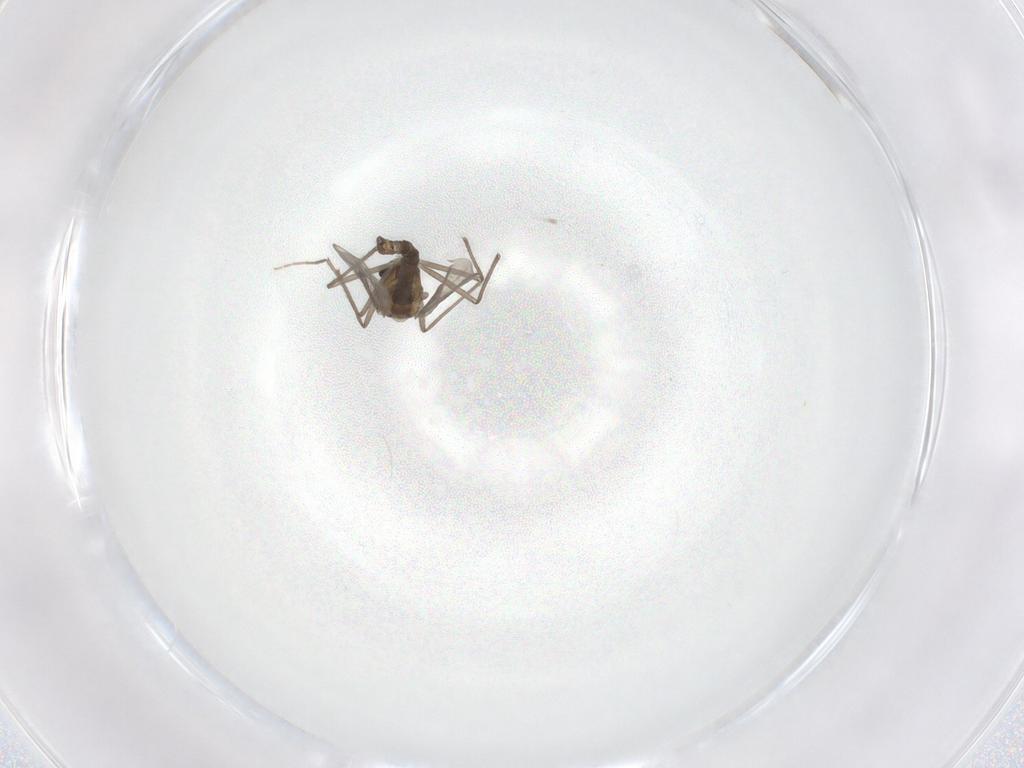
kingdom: Animalia
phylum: Arthropoda
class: Insecta
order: Diptera
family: Chironomidae
